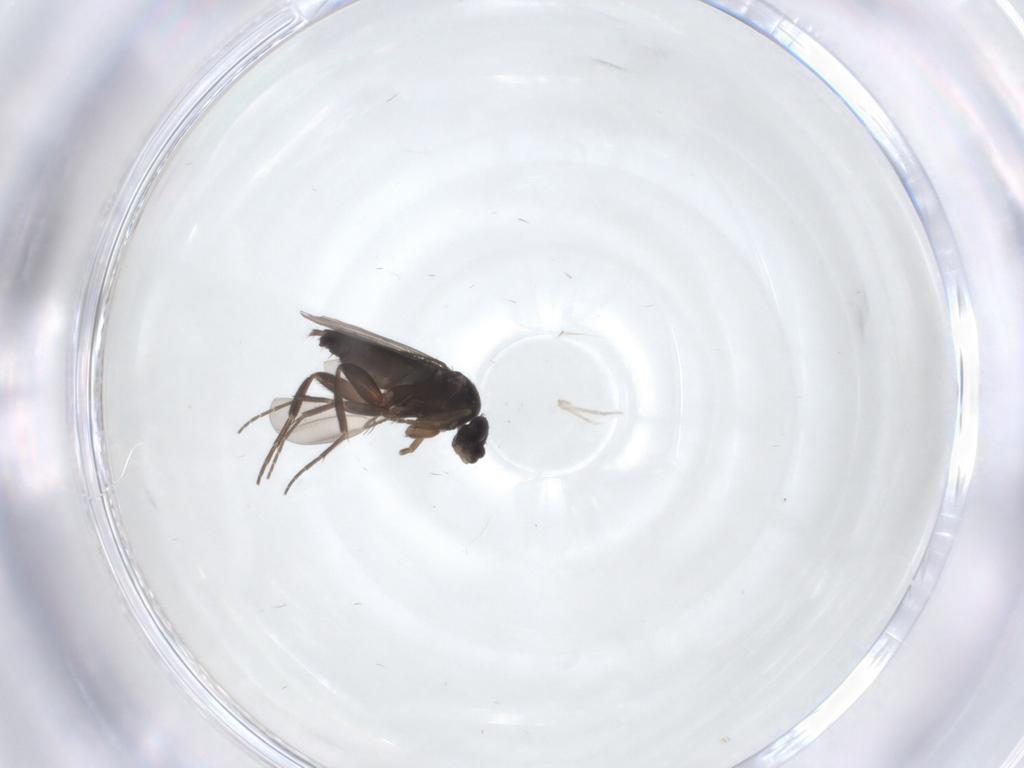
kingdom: Animalia
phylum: Arthropoda
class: Insecta
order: Diptera
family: Phoridae
